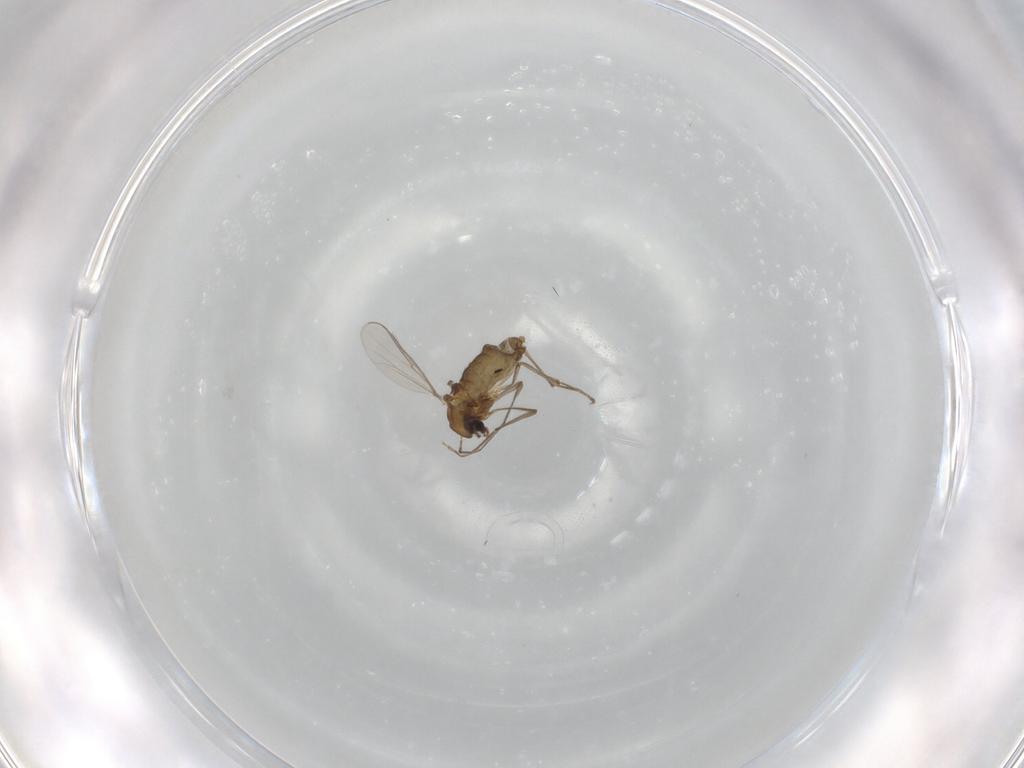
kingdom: Animalia
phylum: Arthropoda
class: Insecta
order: Diptera
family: Chironomidae
